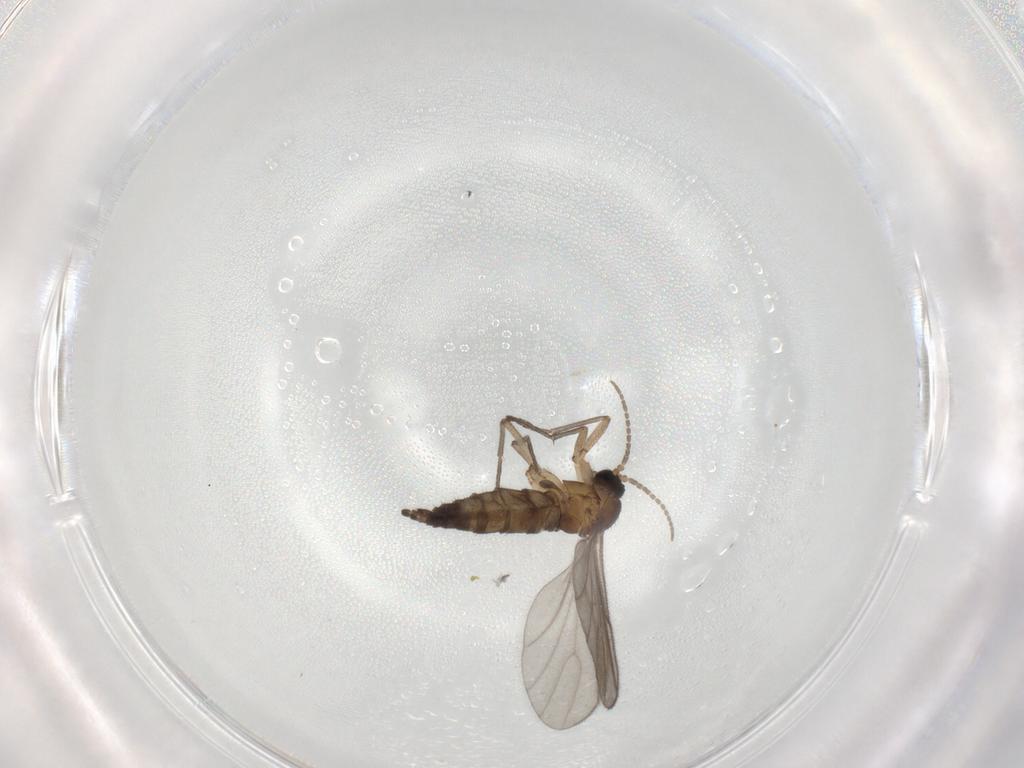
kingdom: Animalia
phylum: Arthropoda
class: Insecta
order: Diptera
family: Sciaridae
